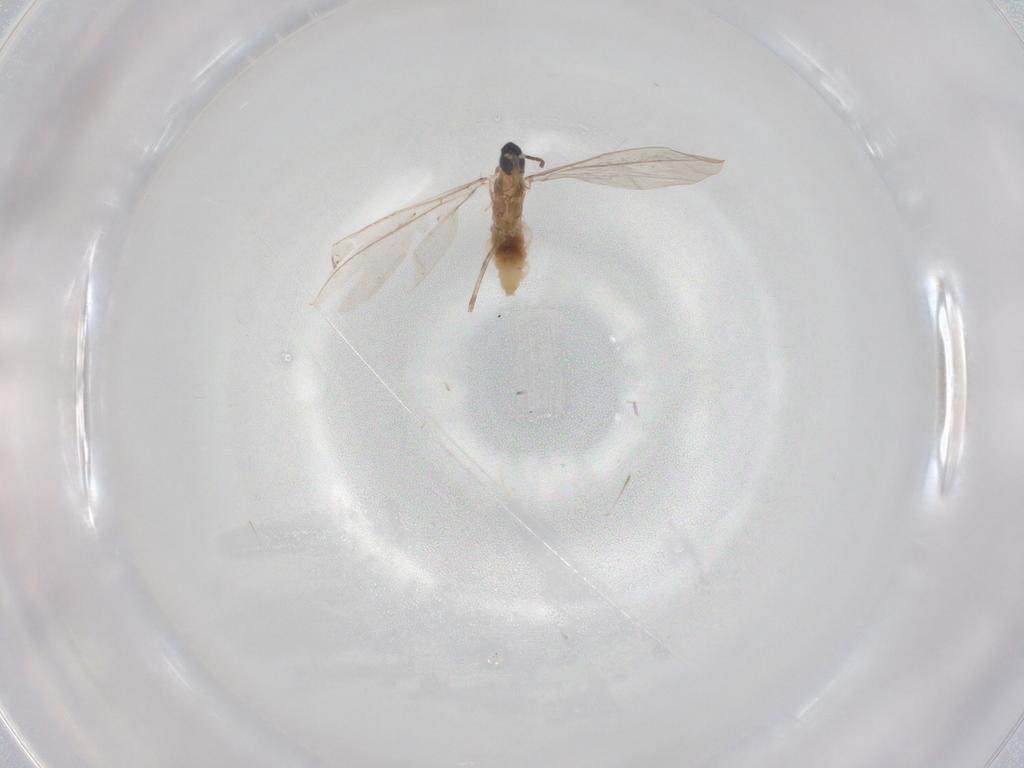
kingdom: Animalia
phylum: Arthropoda
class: Insecta
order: Diptera
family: Cecidomyiidae
